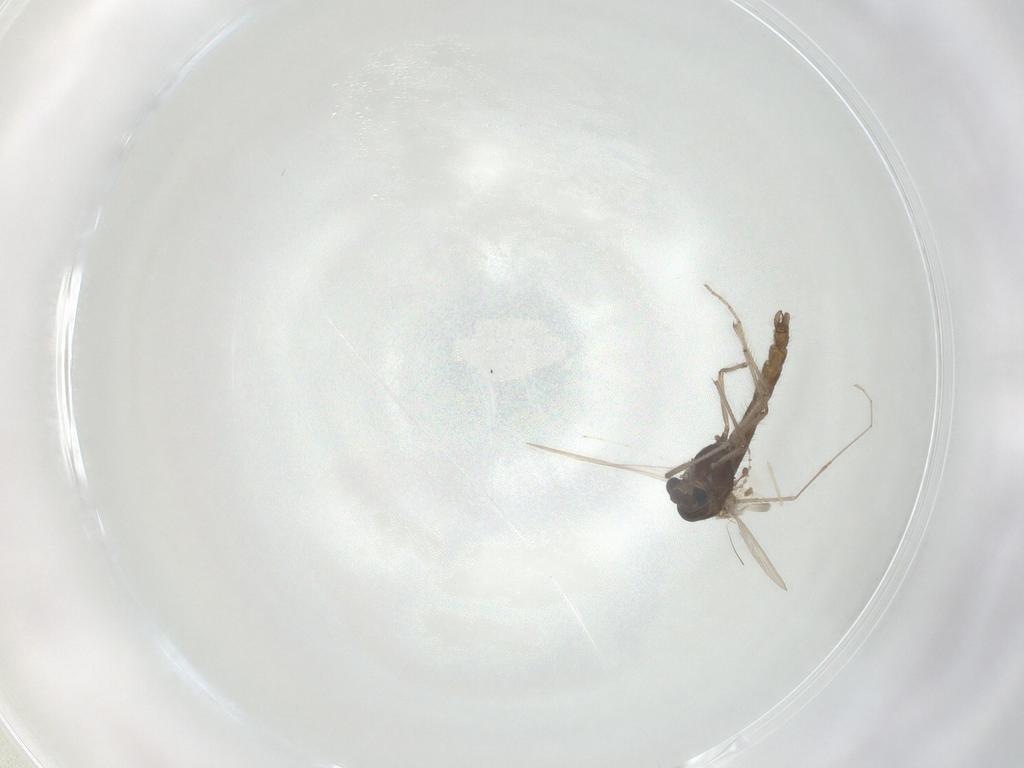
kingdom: Animalia
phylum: Arthropoda
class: Insecta
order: Diptera
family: Chironomidae
